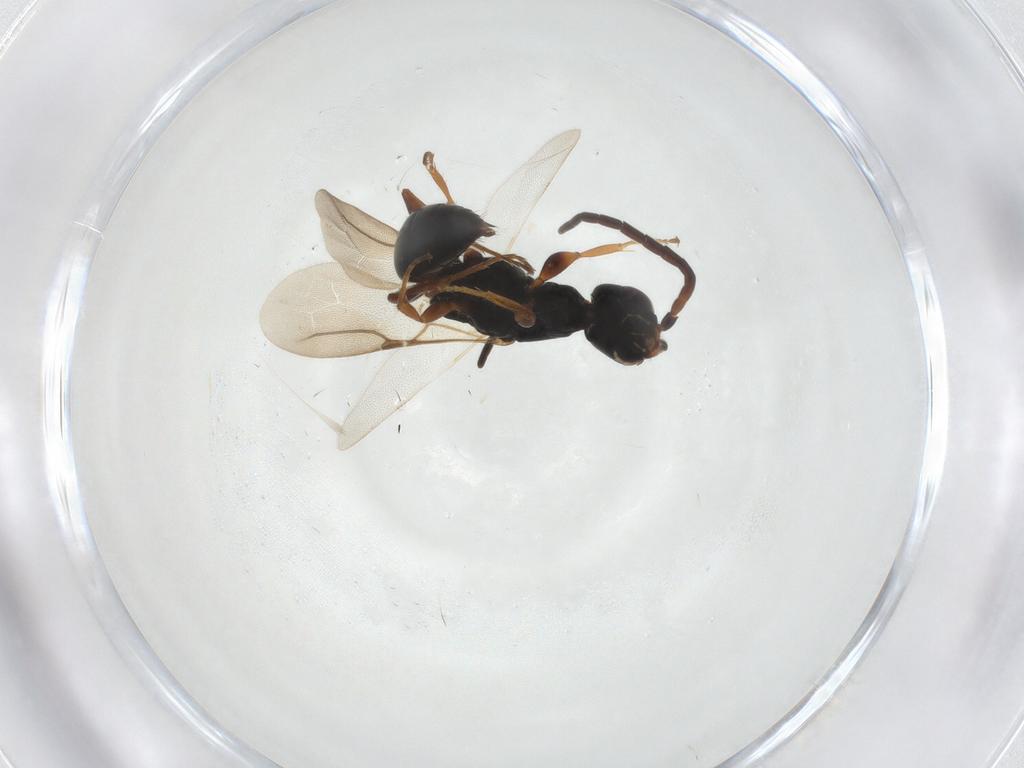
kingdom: Animalia
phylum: Arthropoda
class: Insecta
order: Hymenoptera
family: Bethylidae
